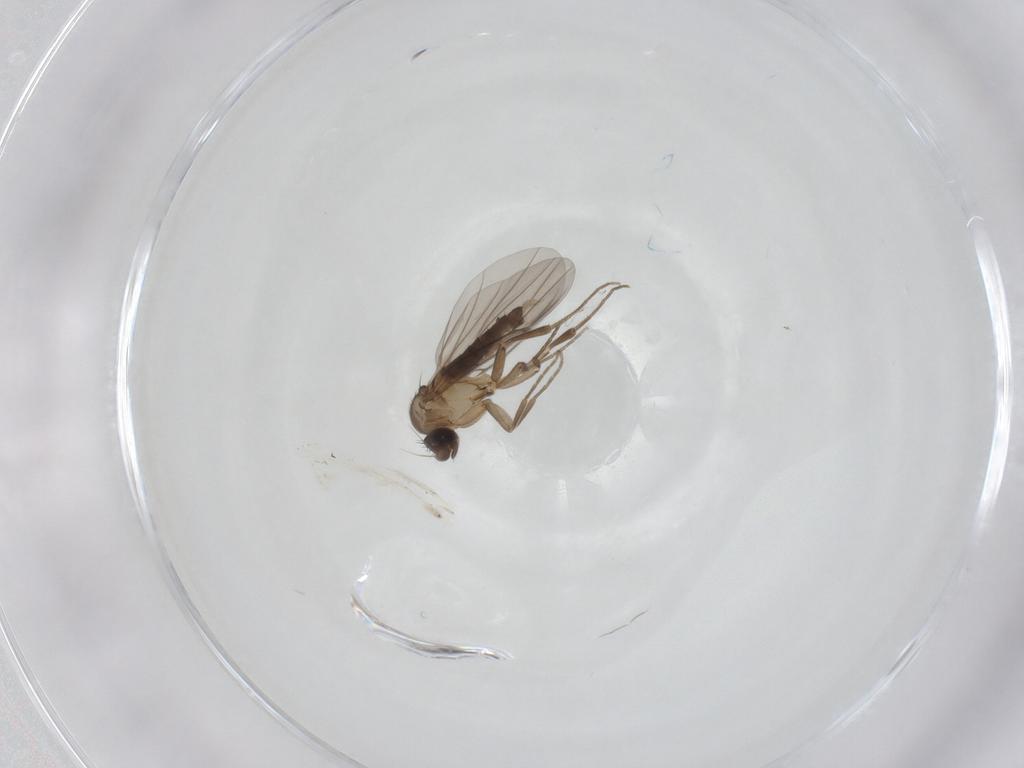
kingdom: Animalia
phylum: Arthropoda
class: Insecta
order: Diptera
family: Phoridae
